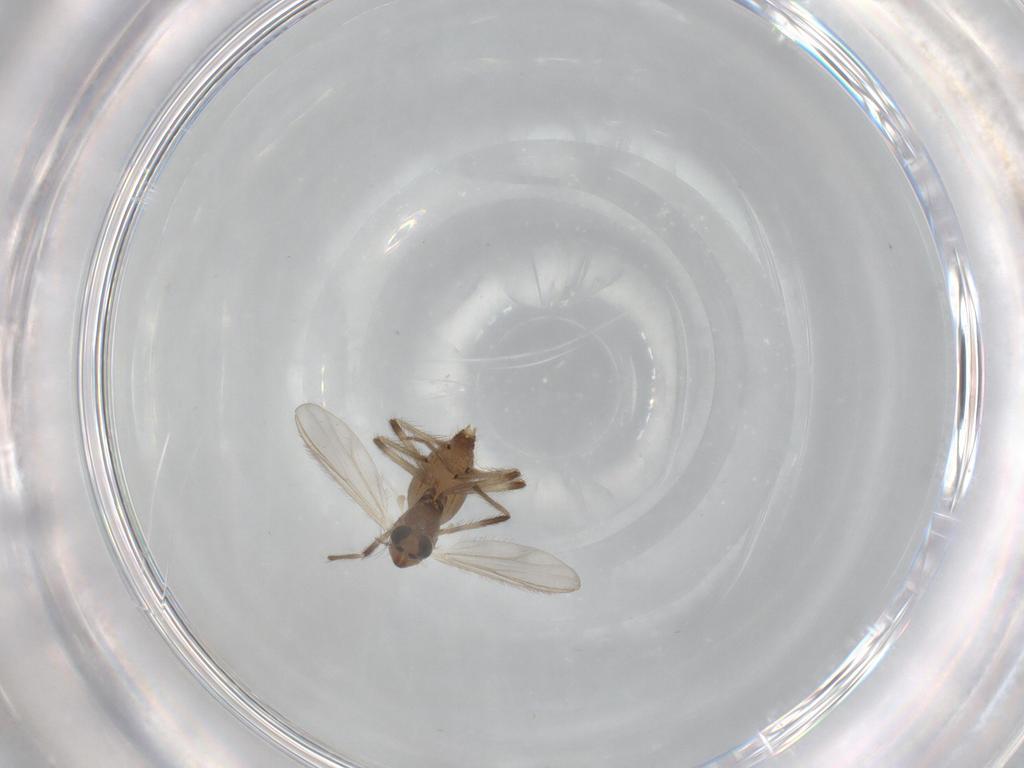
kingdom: Animalia
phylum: Arthropoda
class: Insecta
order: Diptera
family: Chironomidae
